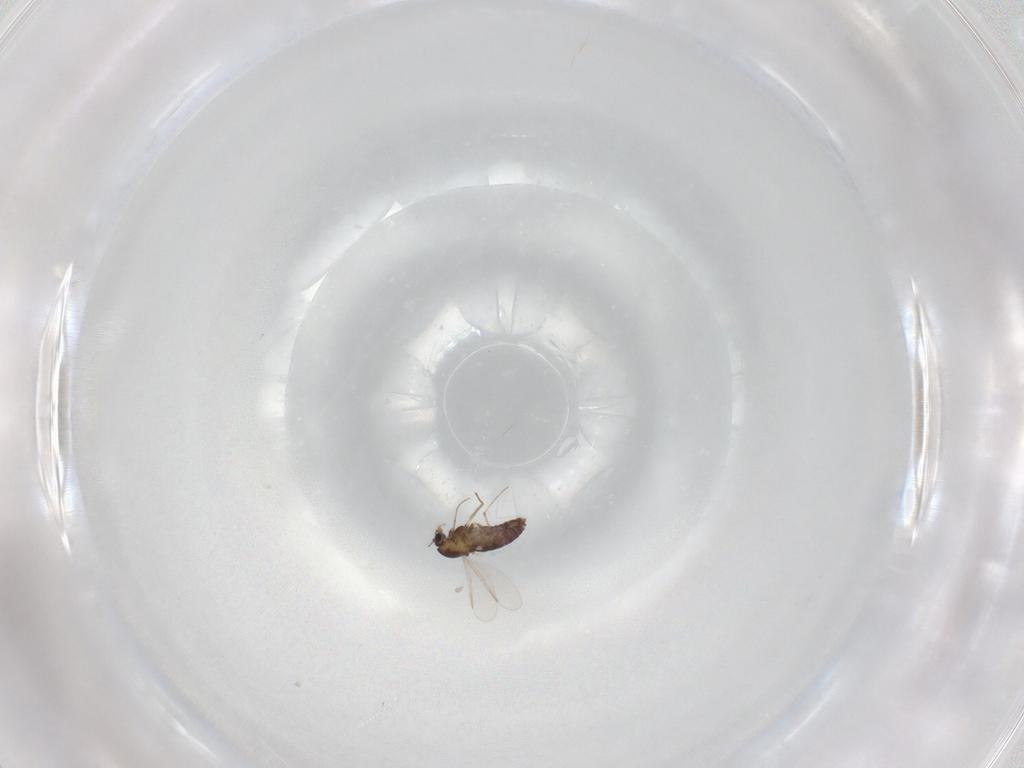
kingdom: Animalia
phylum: Arthropoda
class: Insecta
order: Diptera
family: Chironomidae
